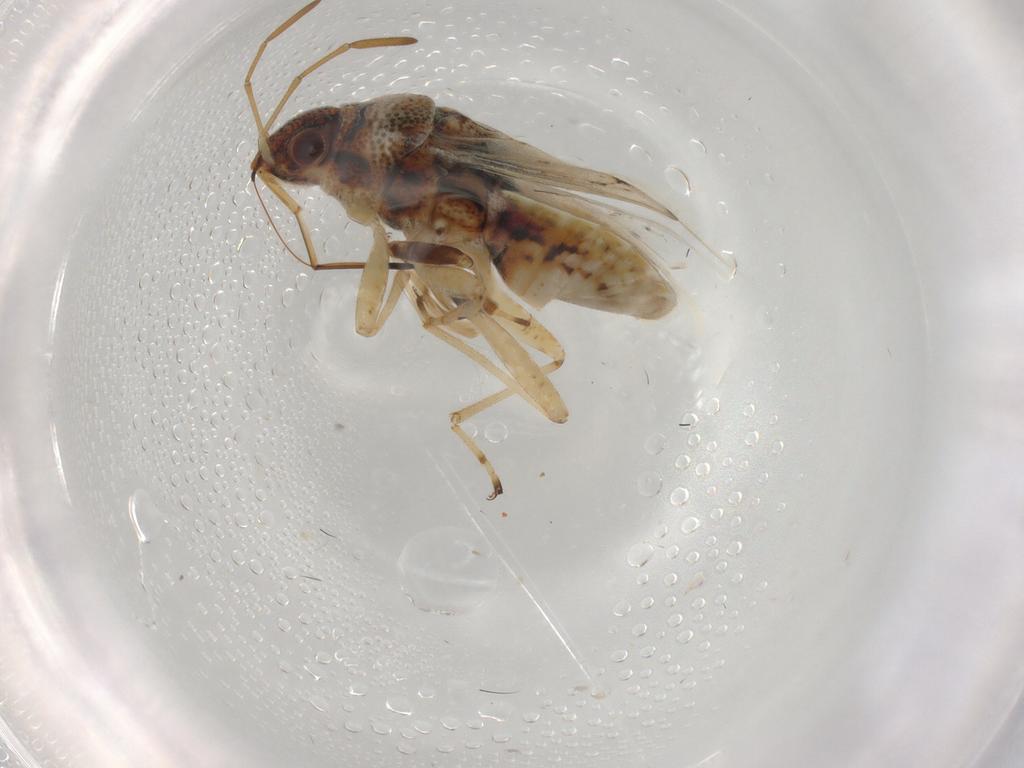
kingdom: Animalia
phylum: Arthropoda
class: Insecta
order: Hemiptera
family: Lygaeidae
